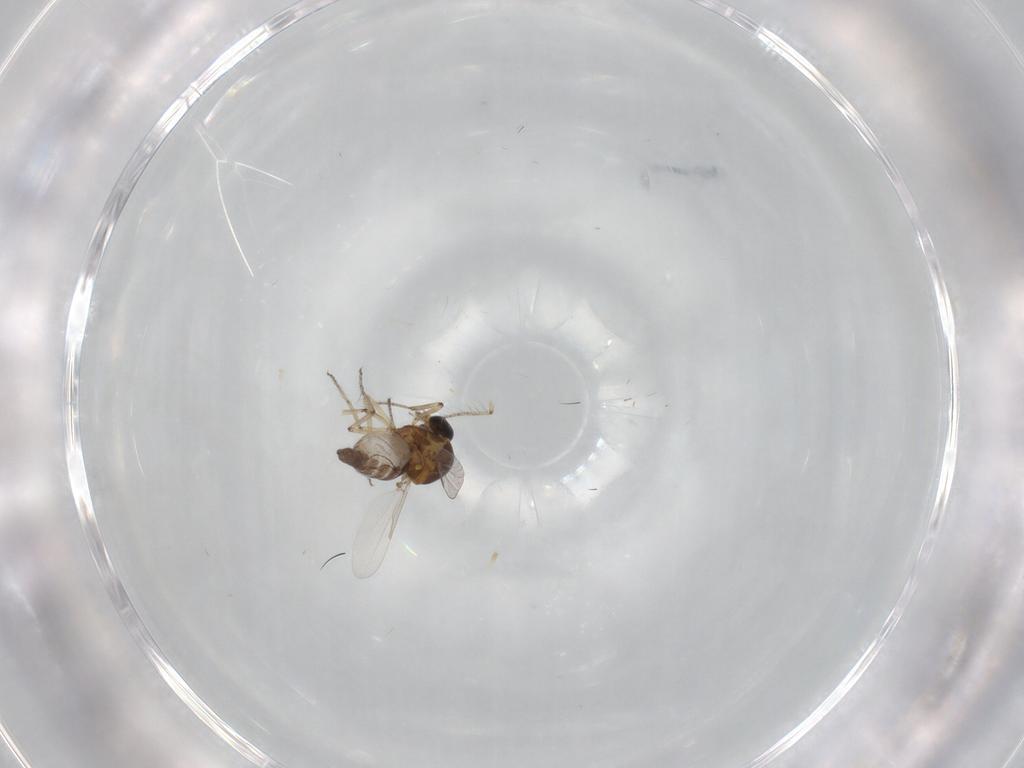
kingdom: Animalia
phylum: Arthropoda
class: Insecta
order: Diptera
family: Ceratopogonidae
